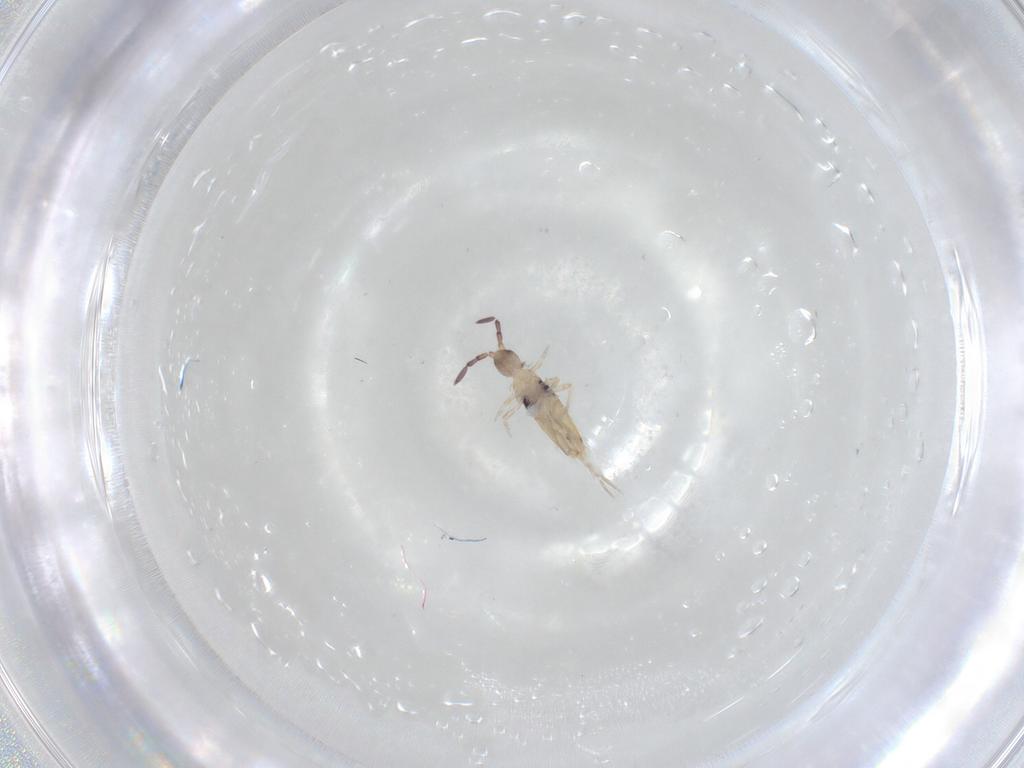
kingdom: Animalia
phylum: Arthropoda
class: Collembola
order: Entomobryomorpha
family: Entomobryidae
